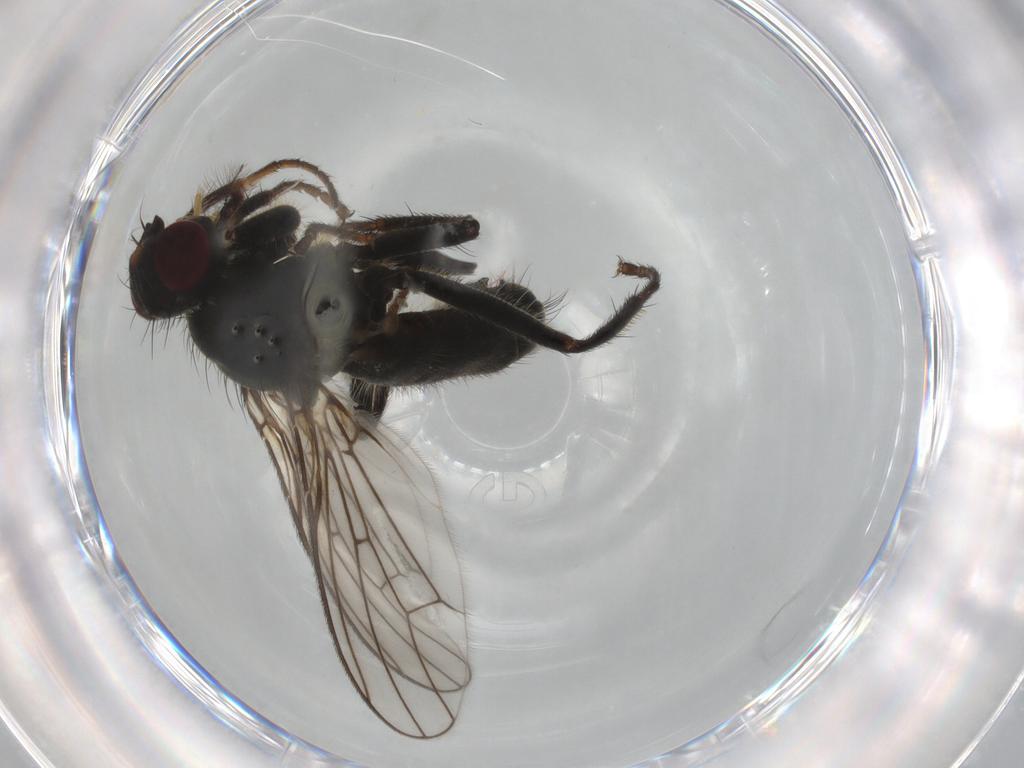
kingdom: Animalia
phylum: Arthropoda
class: Insecta
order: Diptera
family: Scathophagidae
